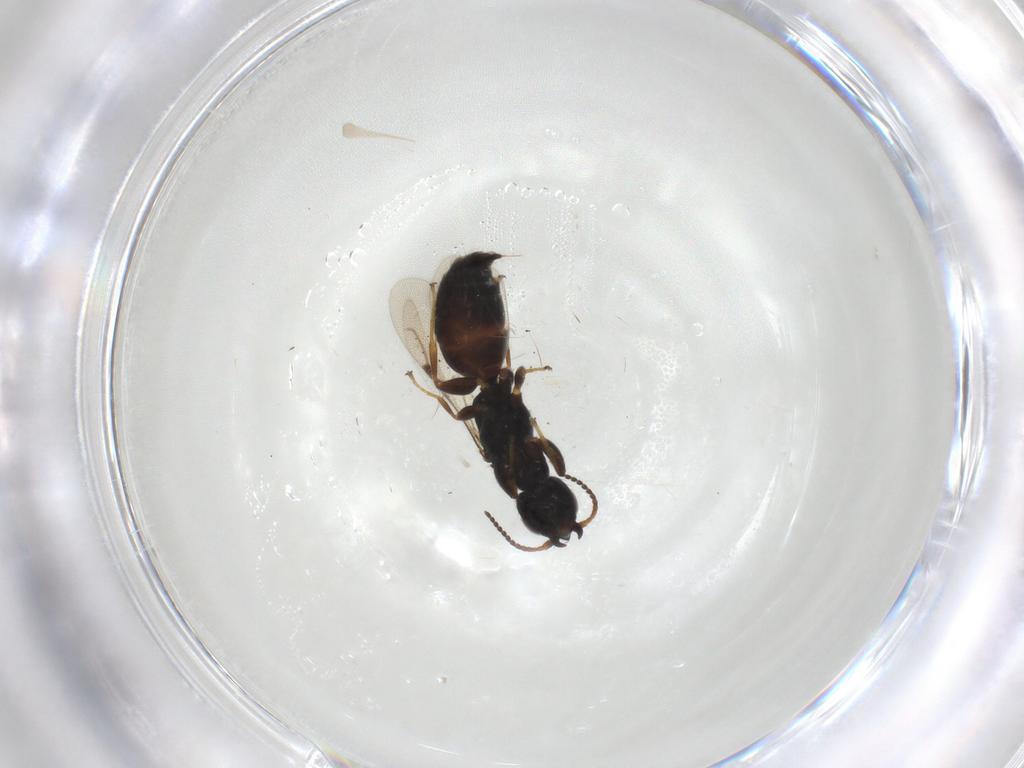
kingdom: Animalia
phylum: Arthropoda
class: Insecta
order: Hymenoptera
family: Bethylidae
